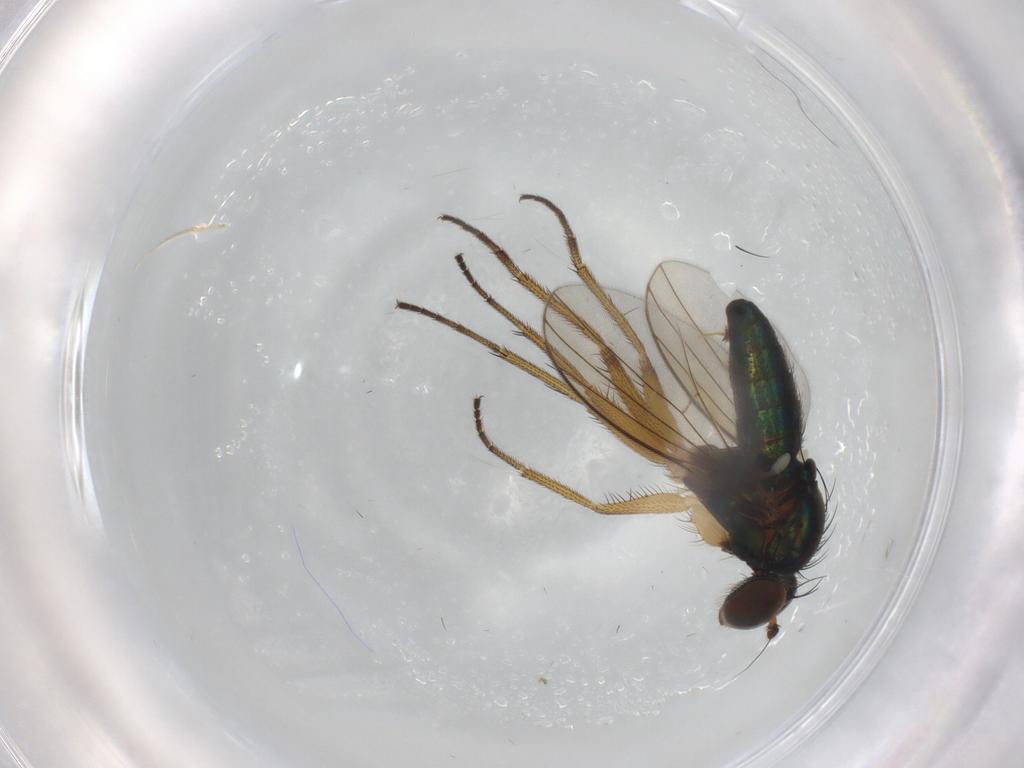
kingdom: Animalia
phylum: Arthropoda
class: Insecta
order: Diptera
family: Dolichopodidae
